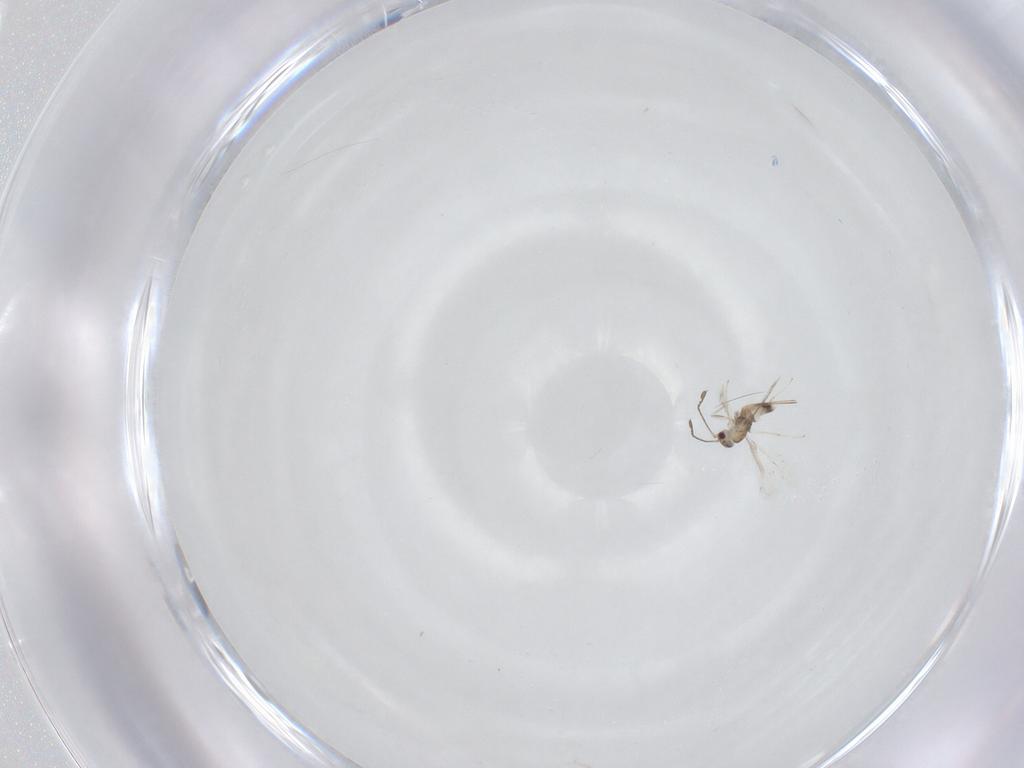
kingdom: Animalia
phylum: Arthropoda
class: Insecta
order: Hymenoptera
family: Mymaridae
